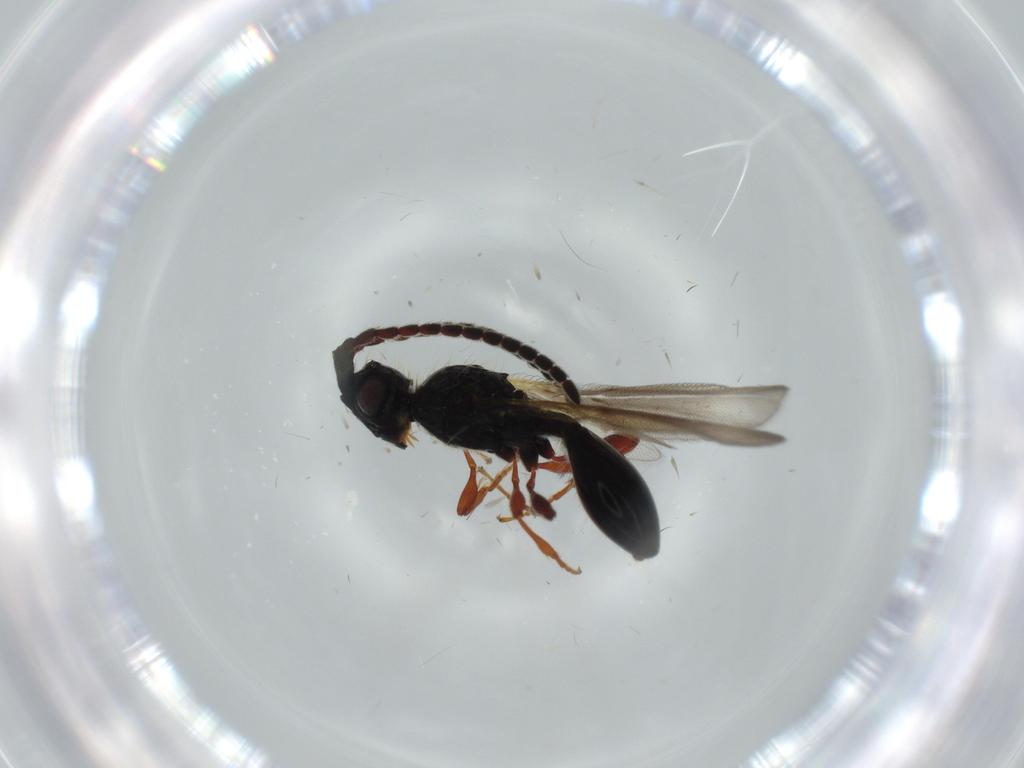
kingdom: Animalia
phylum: Arthropoda
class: Insecta
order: Hymenoptera
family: Diapriidae
